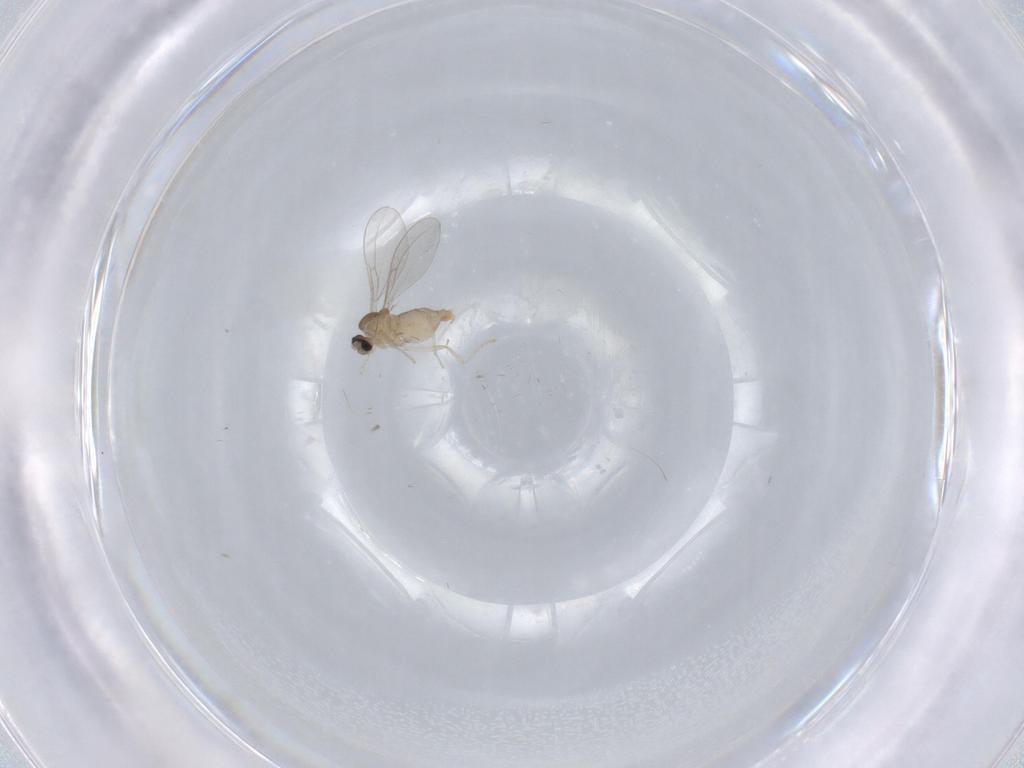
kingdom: Animalia
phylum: Arthropoda
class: Insecta
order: Diptera
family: Cecidomyiidae
